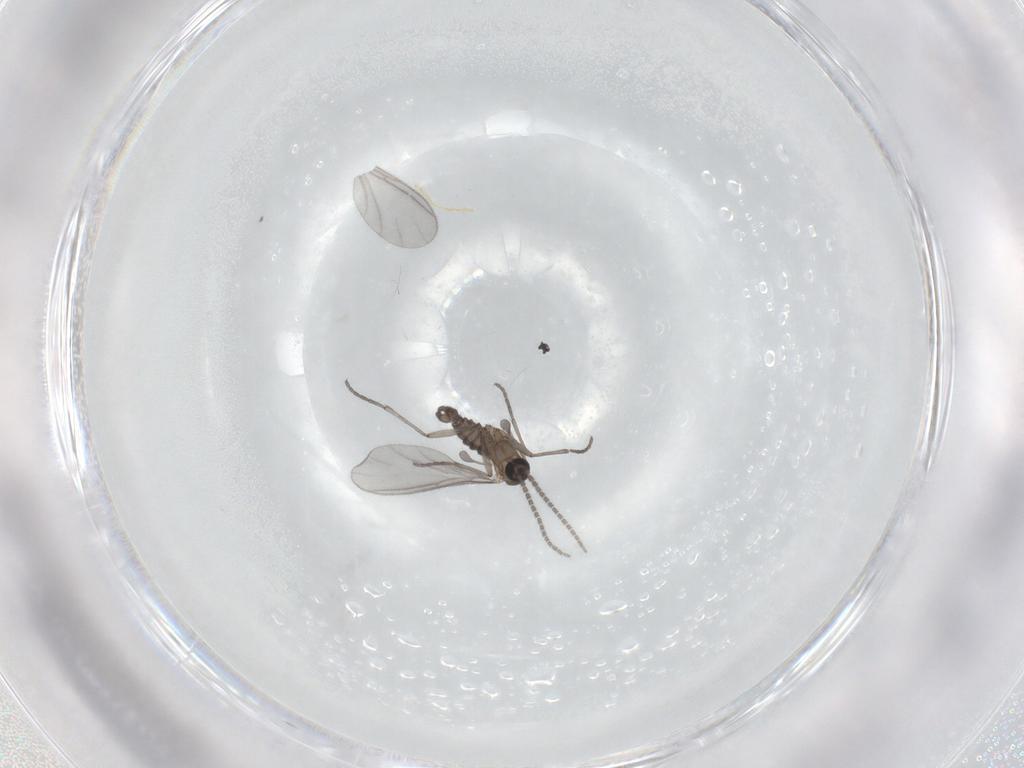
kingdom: Animalia
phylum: Arthropoda
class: Insecta
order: Diptera
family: Sciaridae
